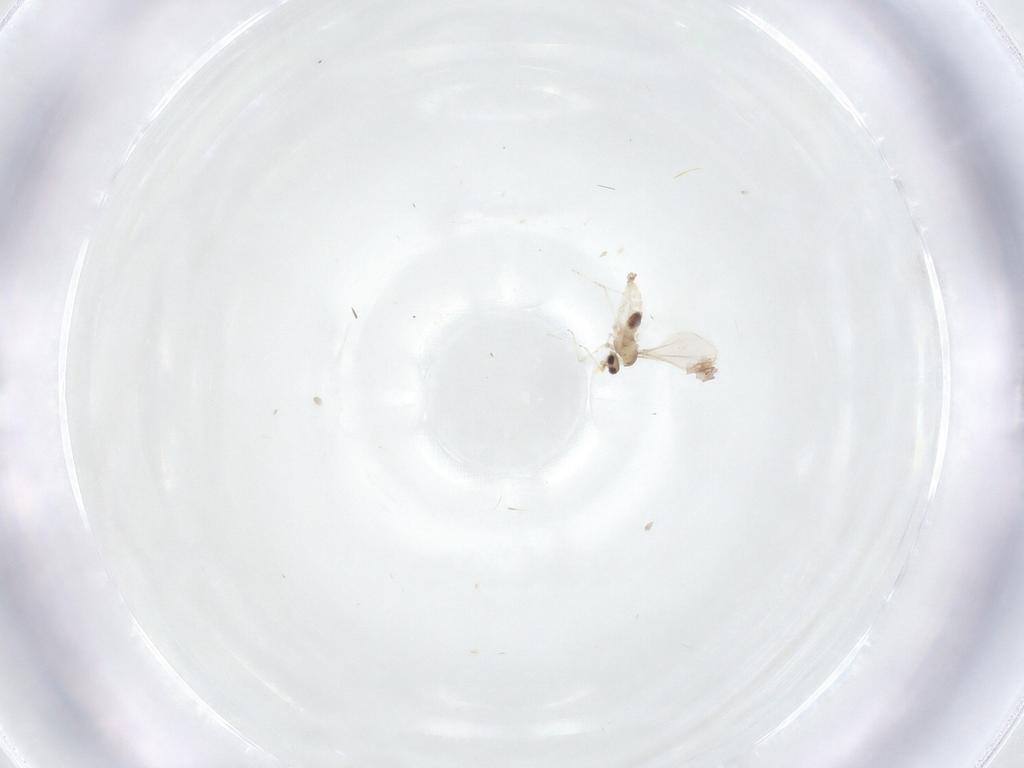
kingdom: Animalia
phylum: Arthropoda
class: Insecta
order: Diptera
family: Cecidomyiidae
